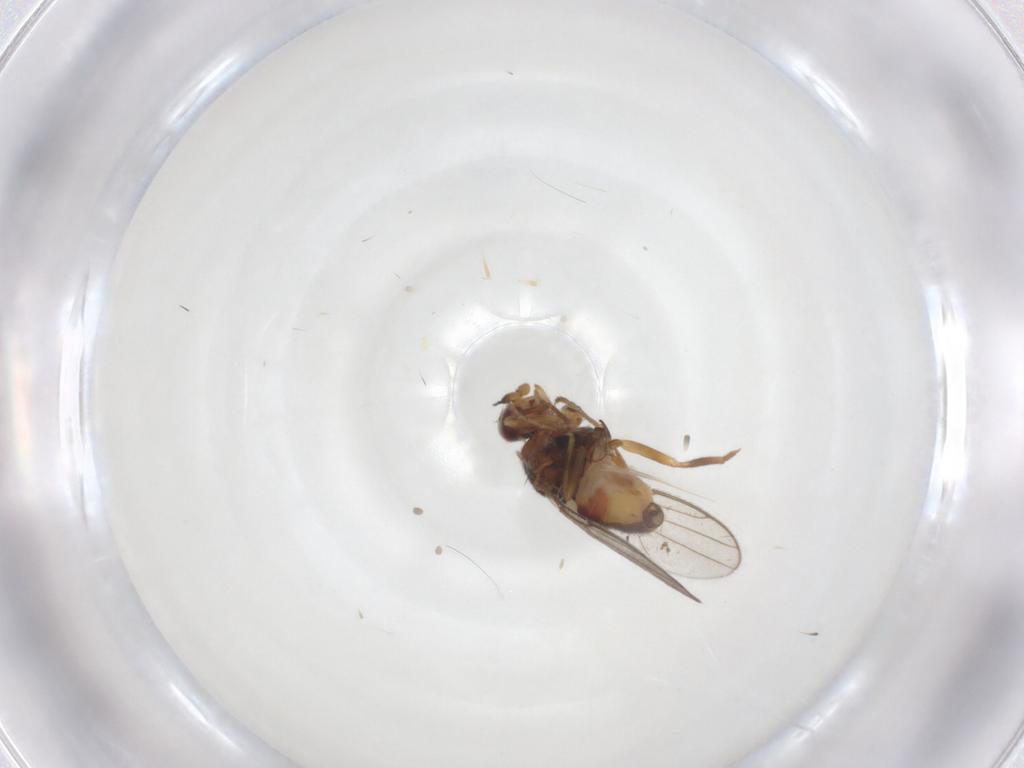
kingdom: Animalia
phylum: Arthropoda
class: Insecta
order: Diptera
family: Chloropidae
